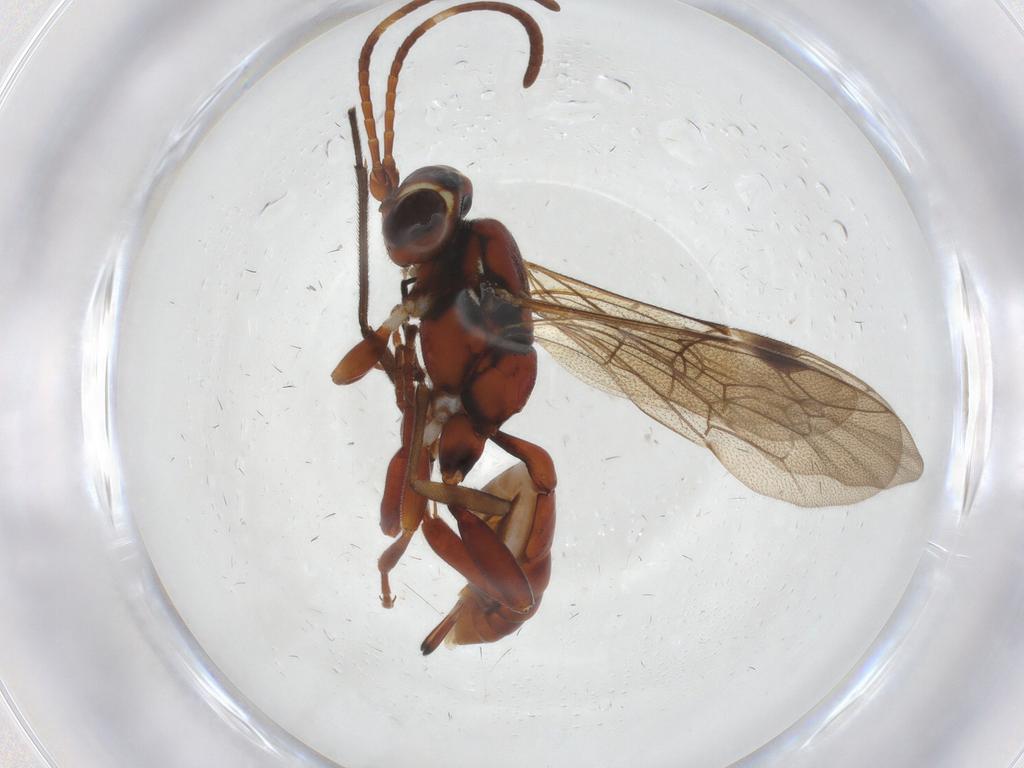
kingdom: Animalia
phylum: Arthropoda
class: Insecta
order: Hymenoptera
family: Ichneumonidae
